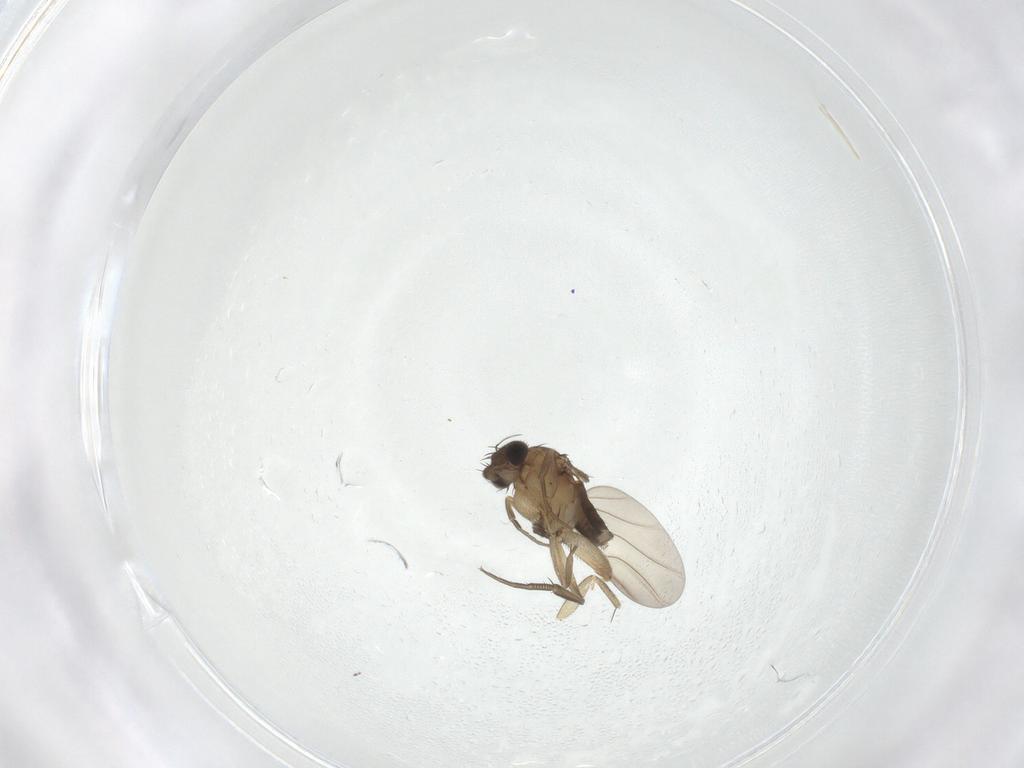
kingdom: Animalia
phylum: Arthropoda
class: Insecta
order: Diptera
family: Phoridae
